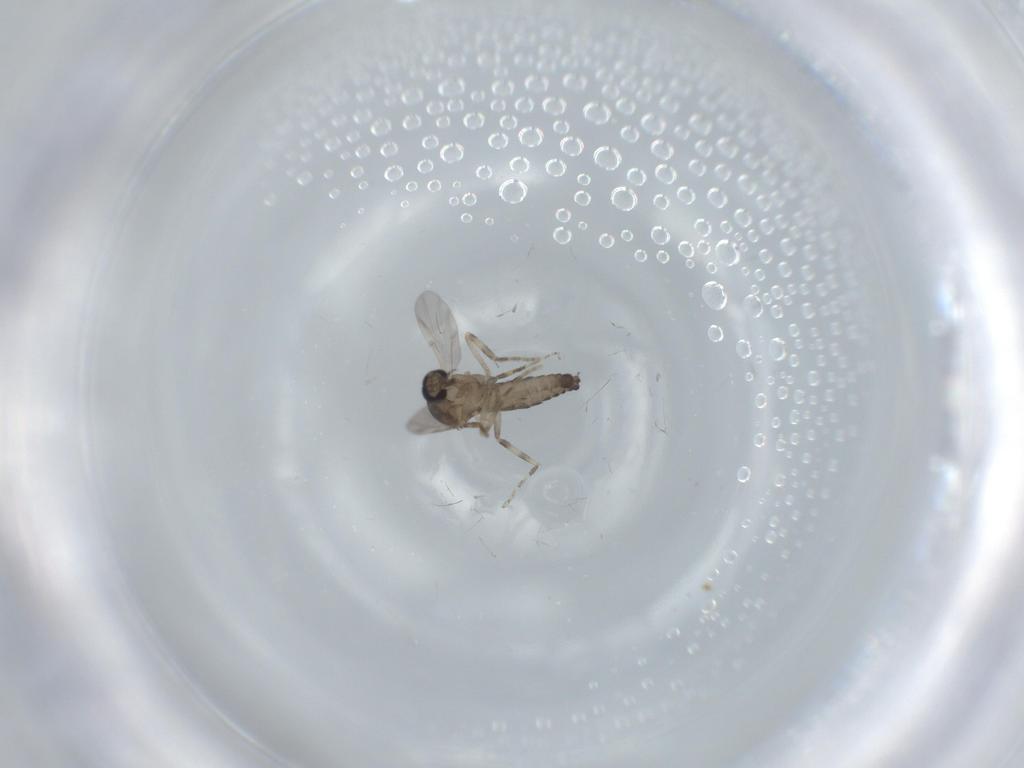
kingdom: Animalia
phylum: Arthropoda
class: Insecta
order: Diptera
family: Ceratopogonidae
